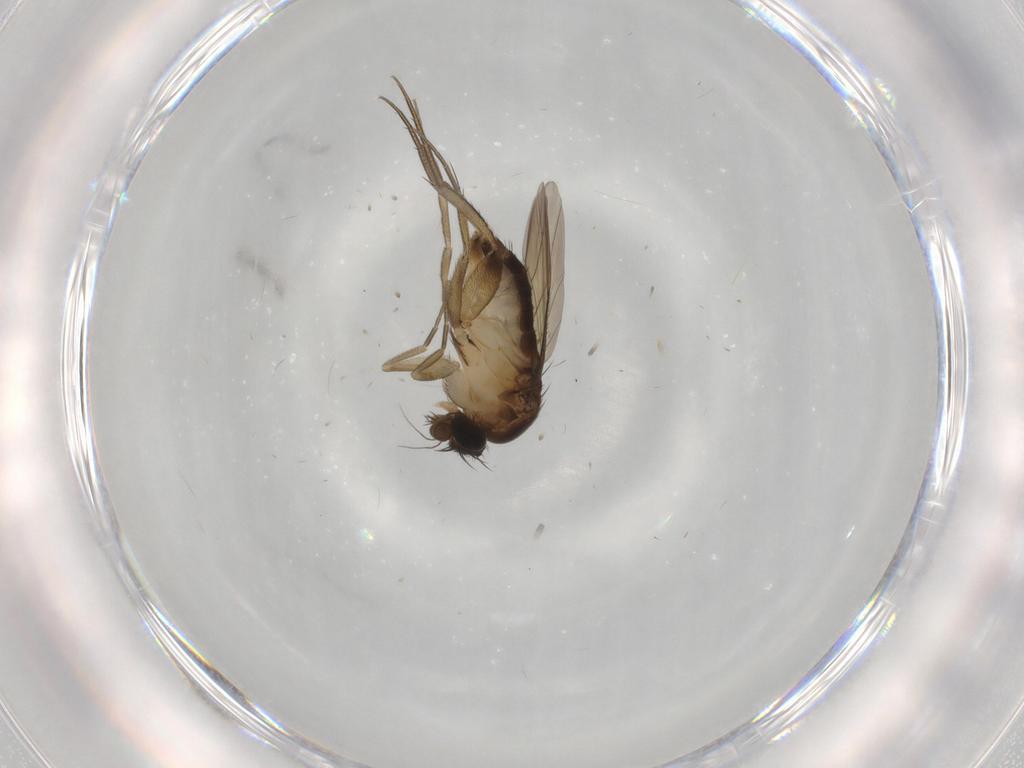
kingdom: Animalia
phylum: Arthropoda
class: Insecta
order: Diptera
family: Phoridae
